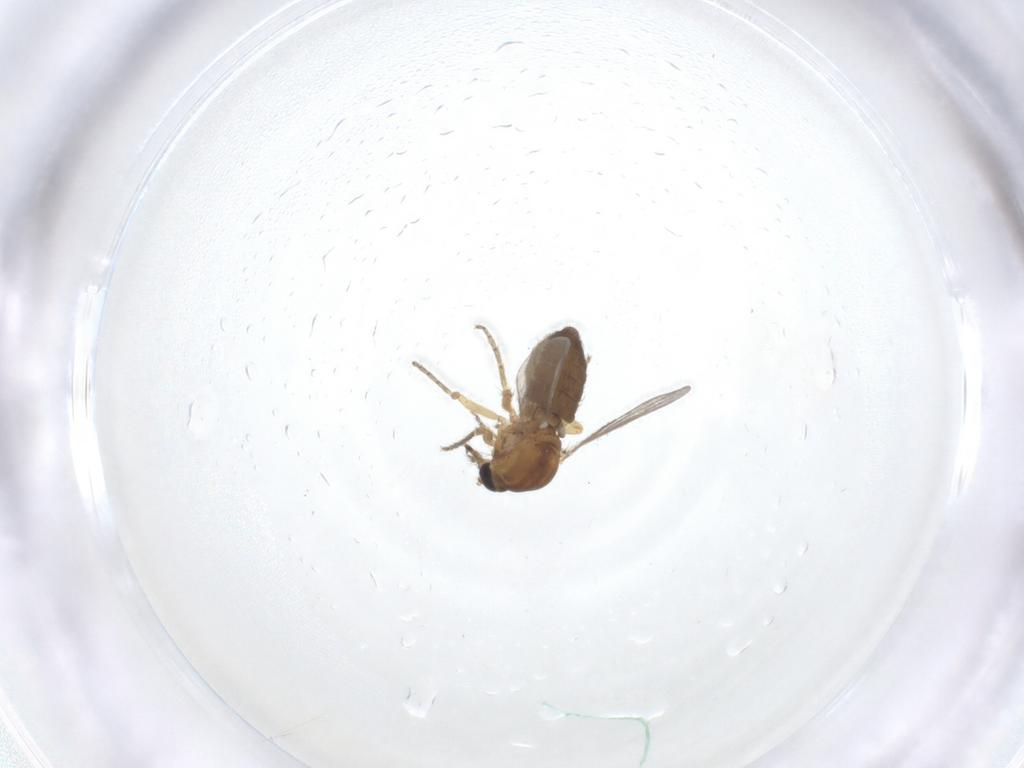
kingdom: Animalia
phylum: Arthropoda
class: Insecta
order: Diptera
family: Ceratopogonidae
